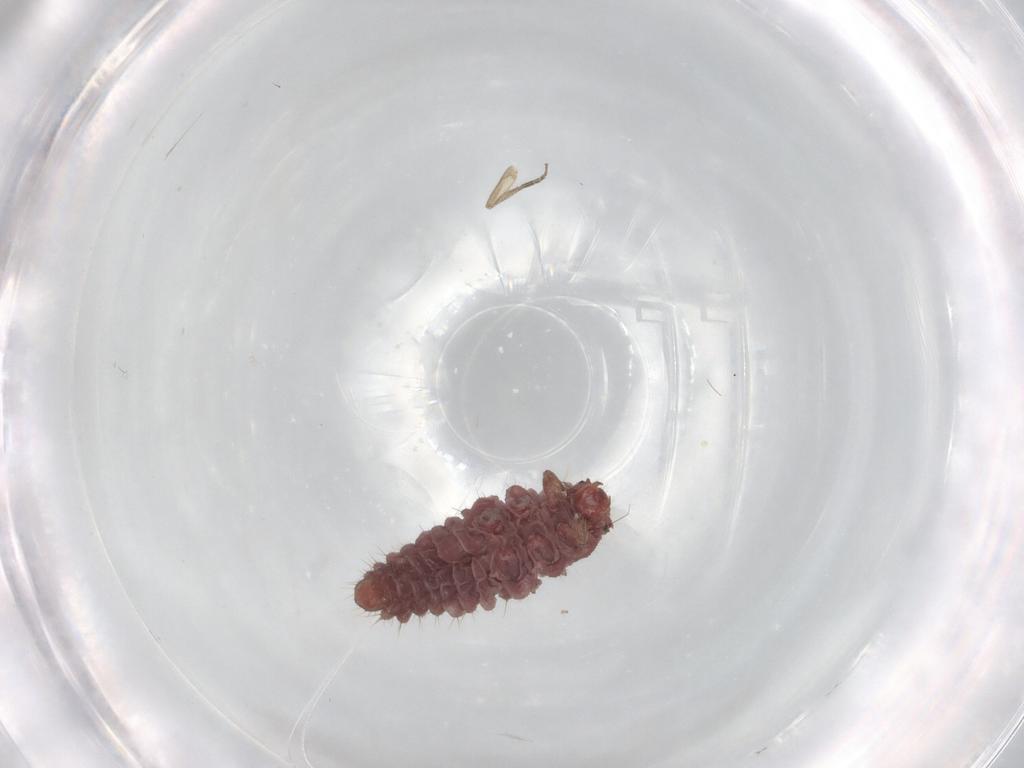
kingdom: Animalia
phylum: Arthropoda
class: Insecta
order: Coleoptera
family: Coccinellidae
